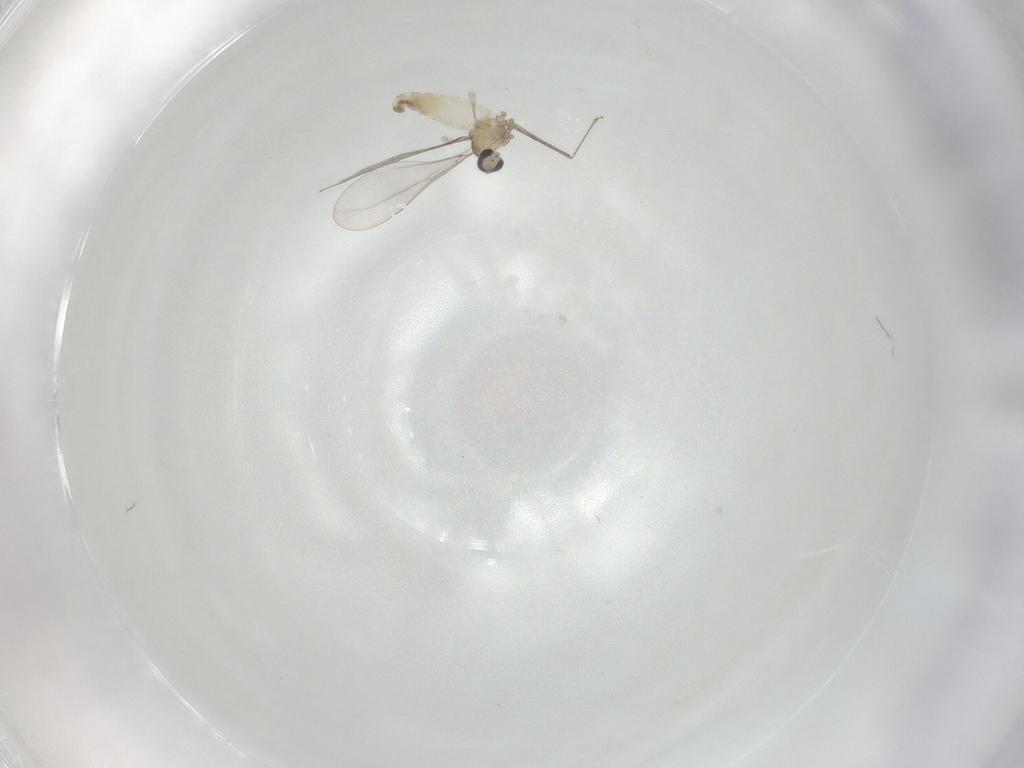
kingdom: Animalia
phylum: Arthropoda
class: Insecta
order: Diptera
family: Cecidomyiidae
